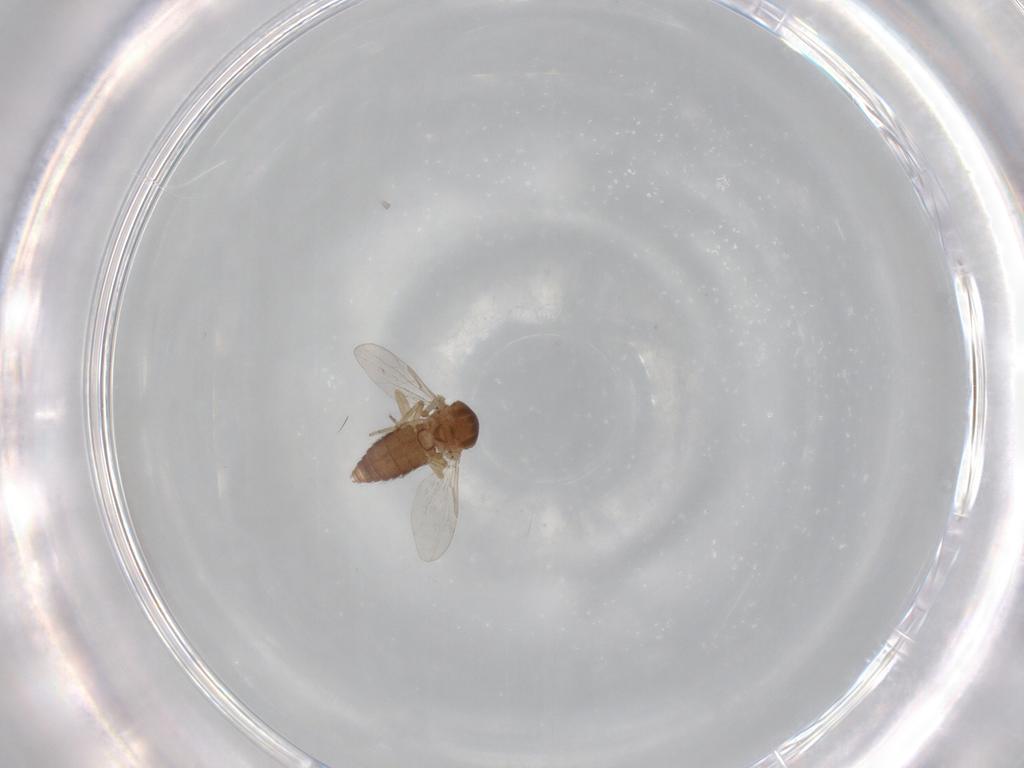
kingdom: Animalia
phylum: Arthropoda
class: Insecta
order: Diptera
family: Ceratopogonidae
